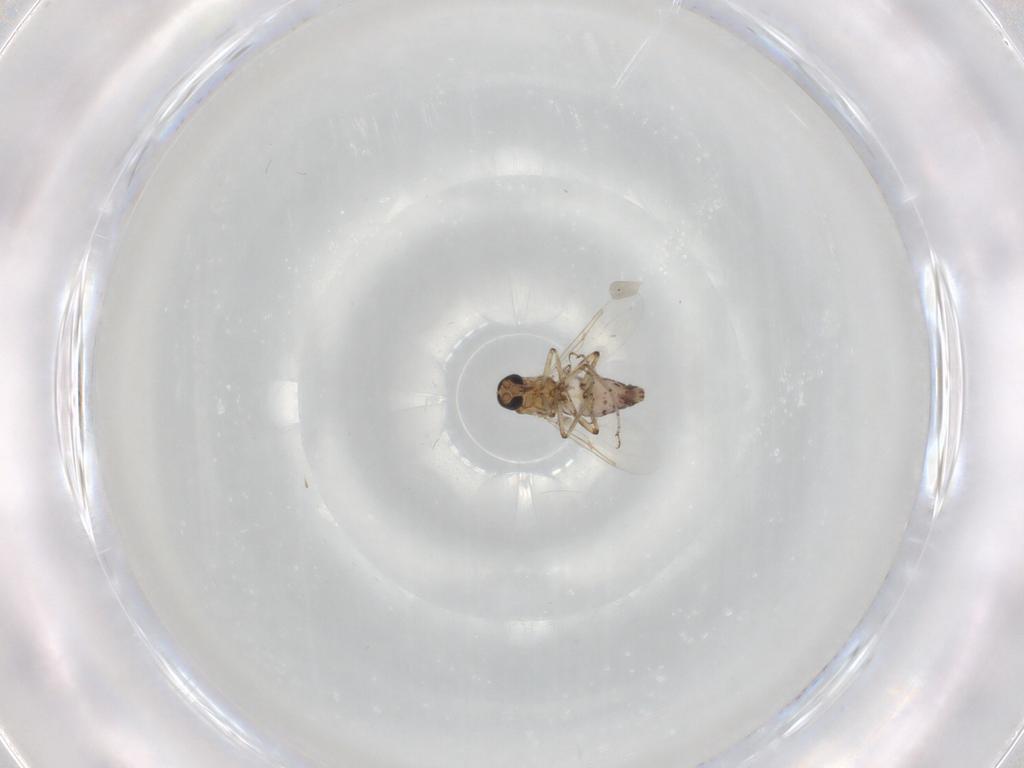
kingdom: Animalia
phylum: Arthropoda
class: Insecta
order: Diptera
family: Ceratopogonidae
